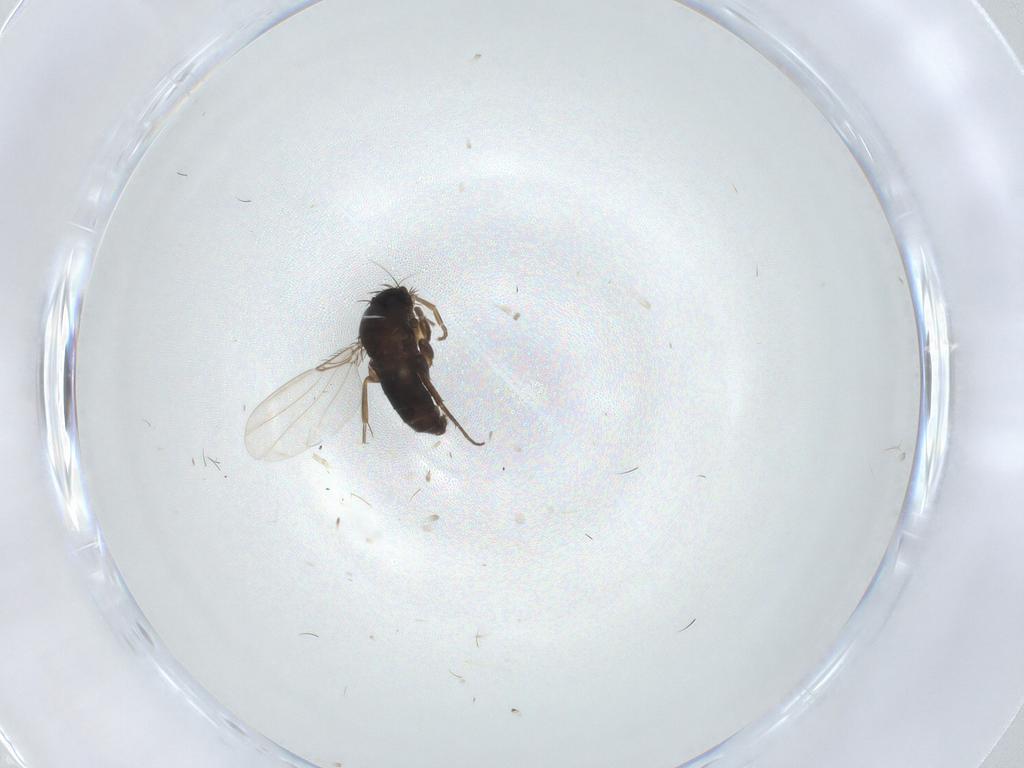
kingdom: Animalia
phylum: Arthropoda
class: Insecta
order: Diptera
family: Phoridae
